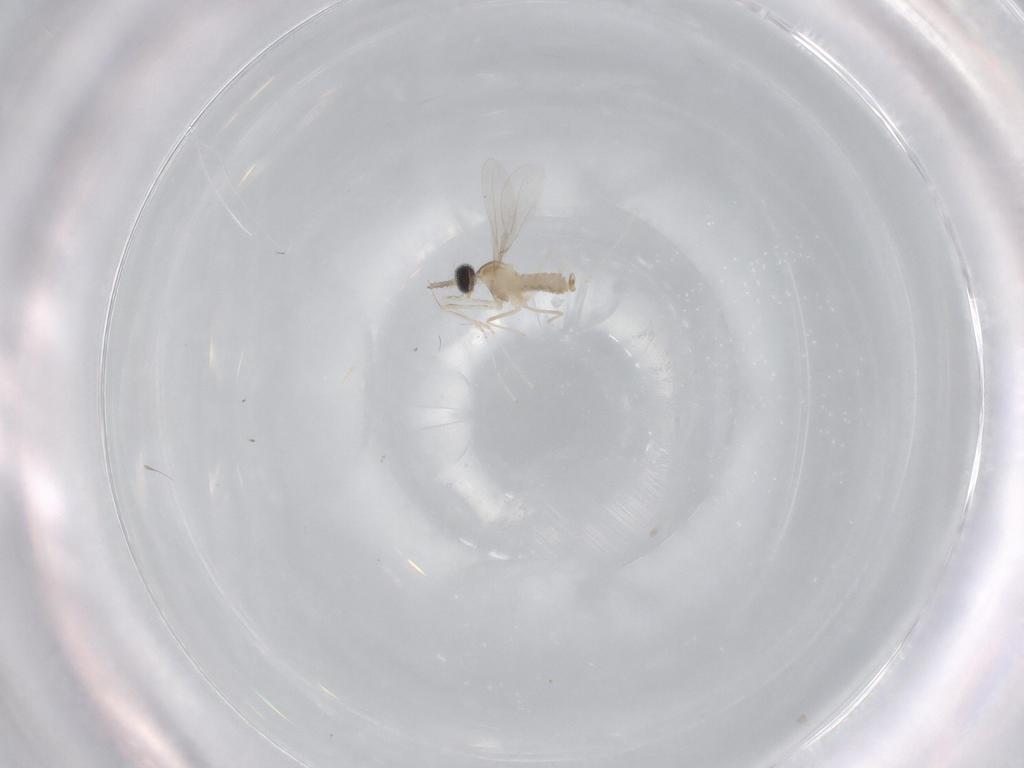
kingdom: Animalia
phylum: Arthropoda
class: Insecta
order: Diptera
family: Cecidomyiidae
